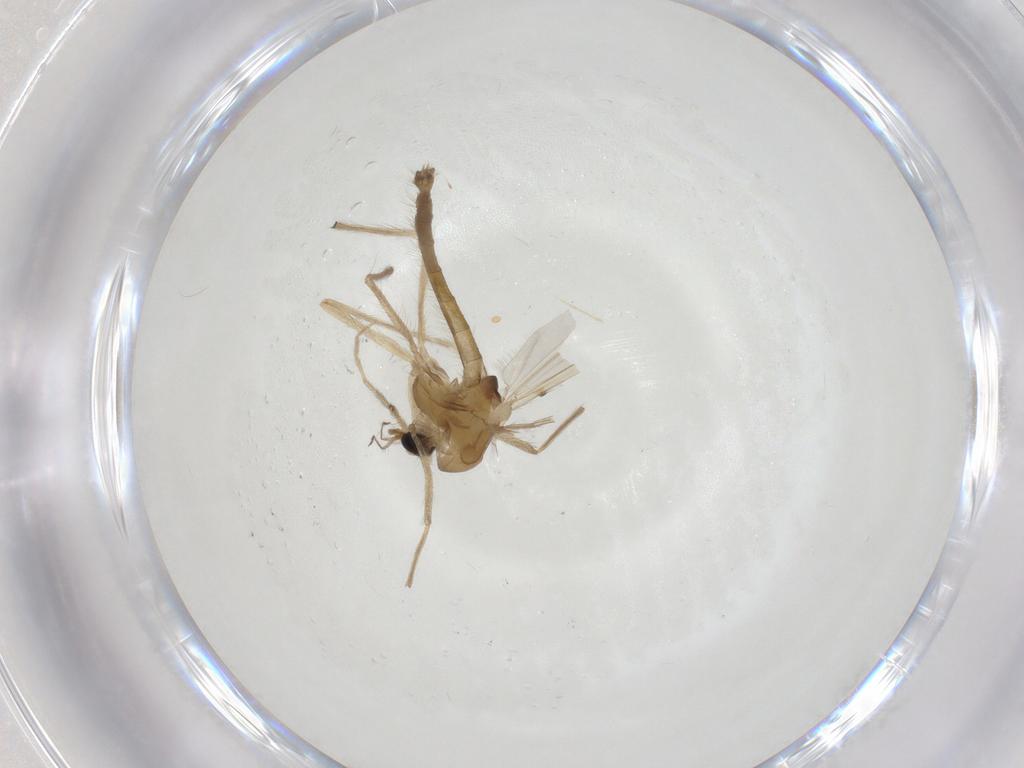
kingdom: Animalia
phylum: Arthropoda
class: Insecta
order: Diptera
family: Chironomidae
